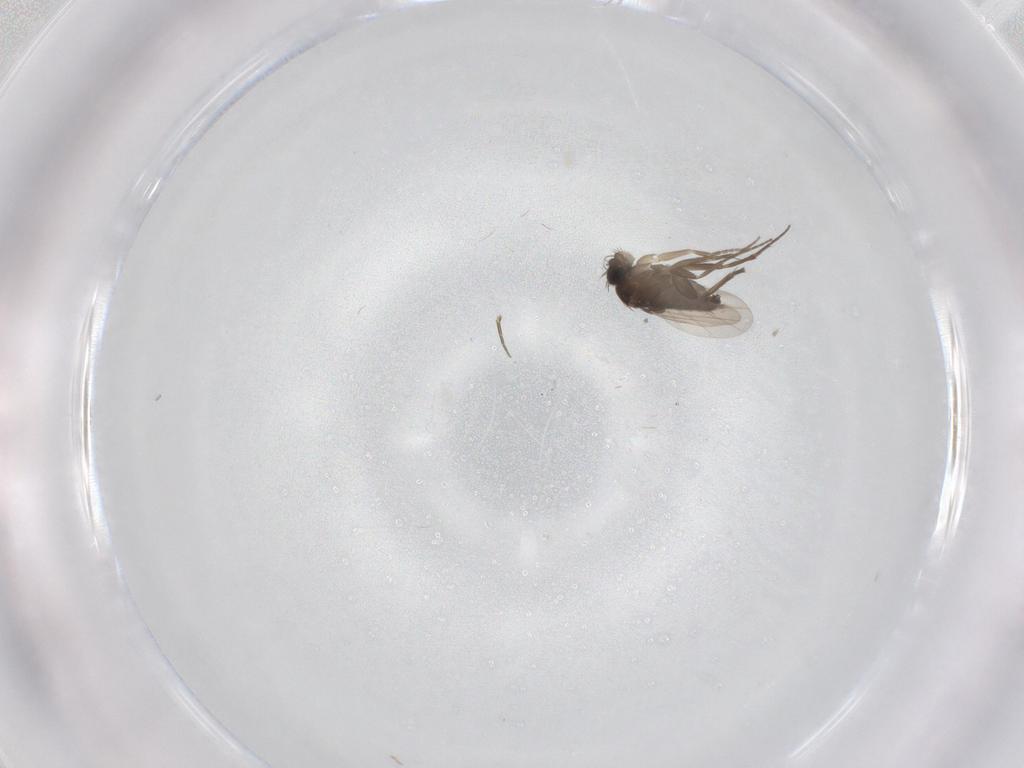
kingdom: Animalia
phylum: Arthropoda
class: Insecta
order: Diptera
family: Phoridae
